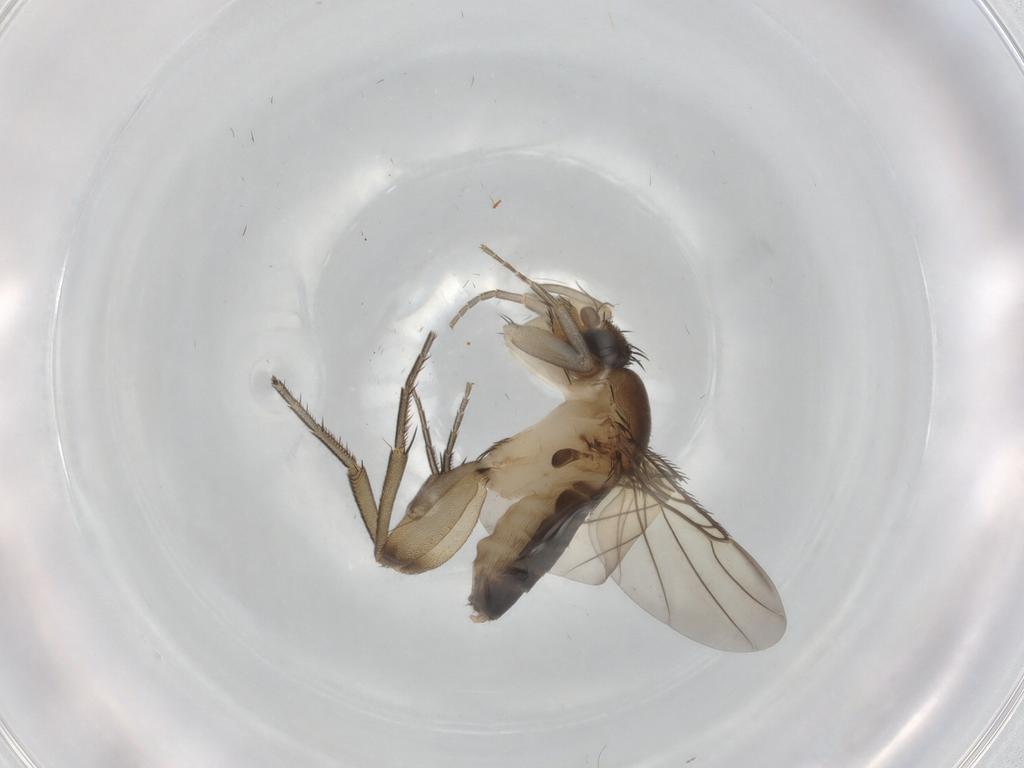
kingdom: Animalia
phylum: Arthropoda
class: Insecta
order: Diptera
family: Phoridae
